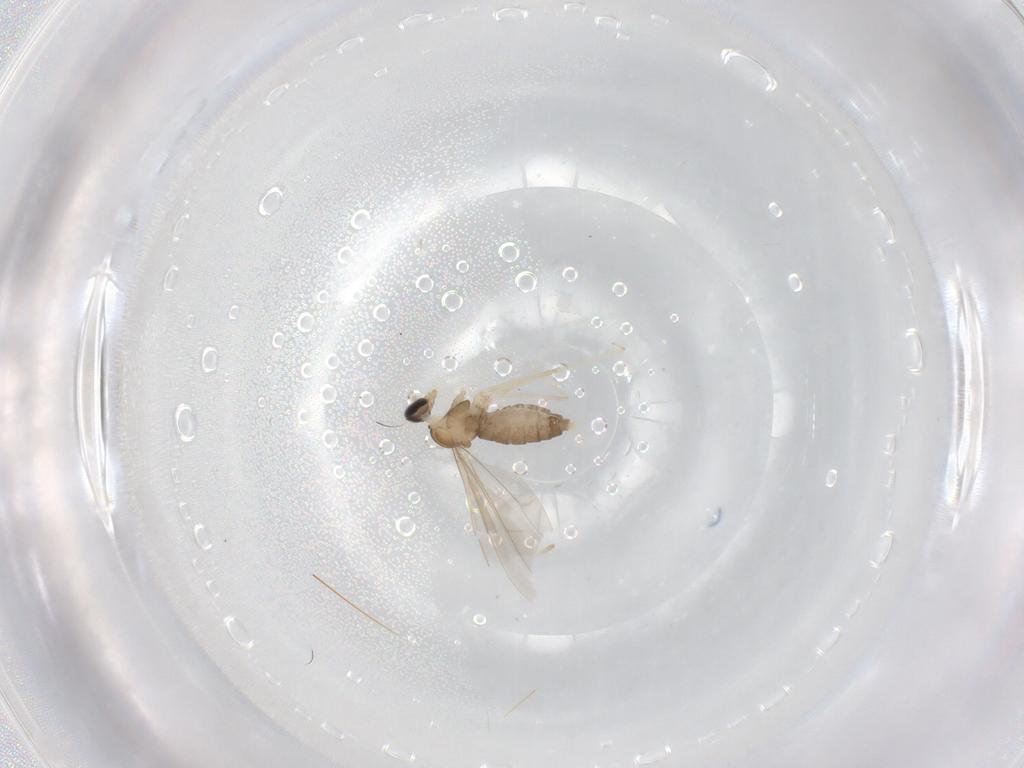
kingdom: Animalia
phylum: Arthropoda
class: Insecta
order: Diptera
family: Cecidomyiidae
